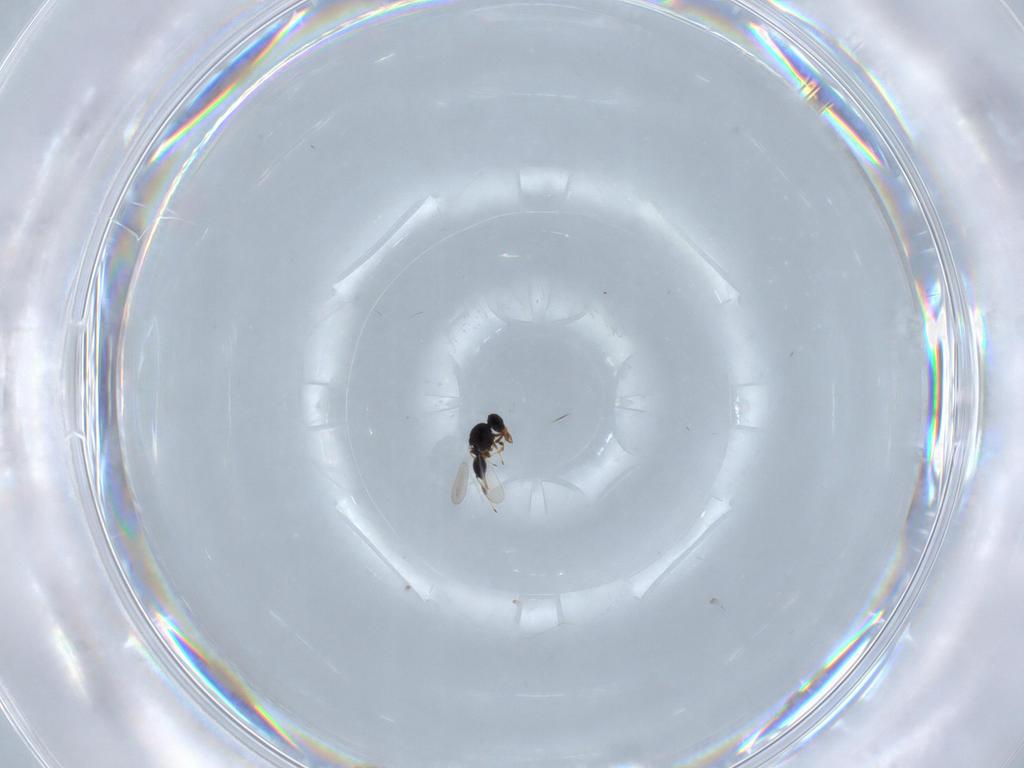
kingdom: Animalia
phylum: Arthropoda
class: Insecta
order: Hymenoptera
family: Platygastridae
